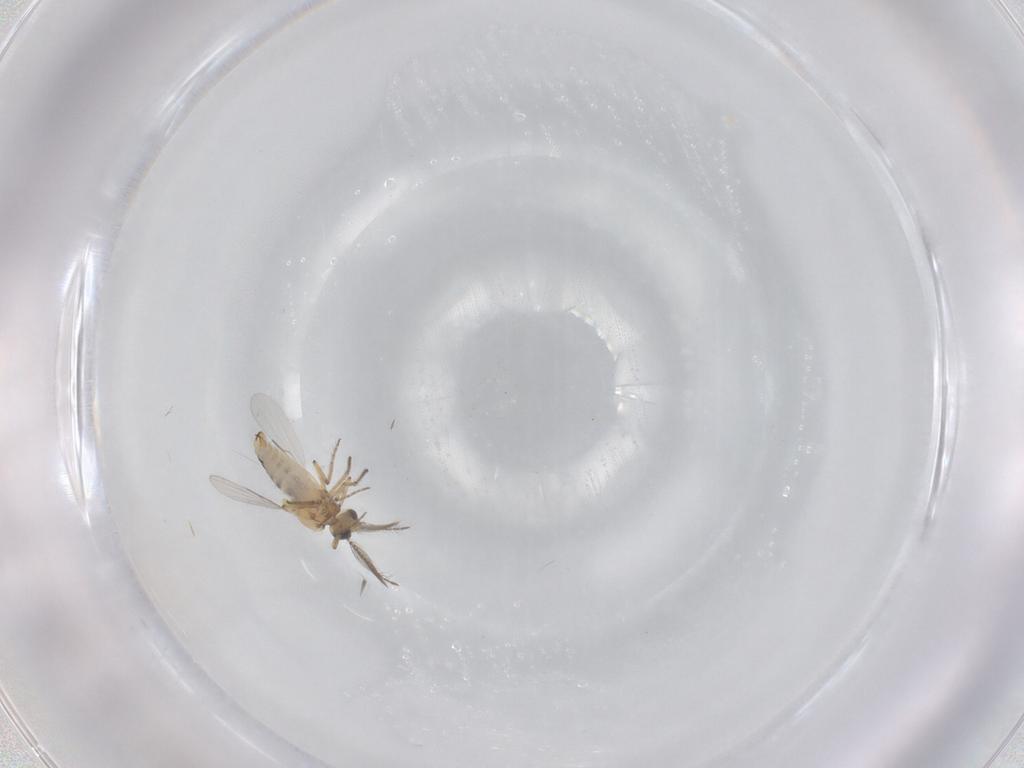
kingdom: Animalia
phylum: Arthropoda
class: Insecta
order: Diptera
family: Ceratopogonidae
